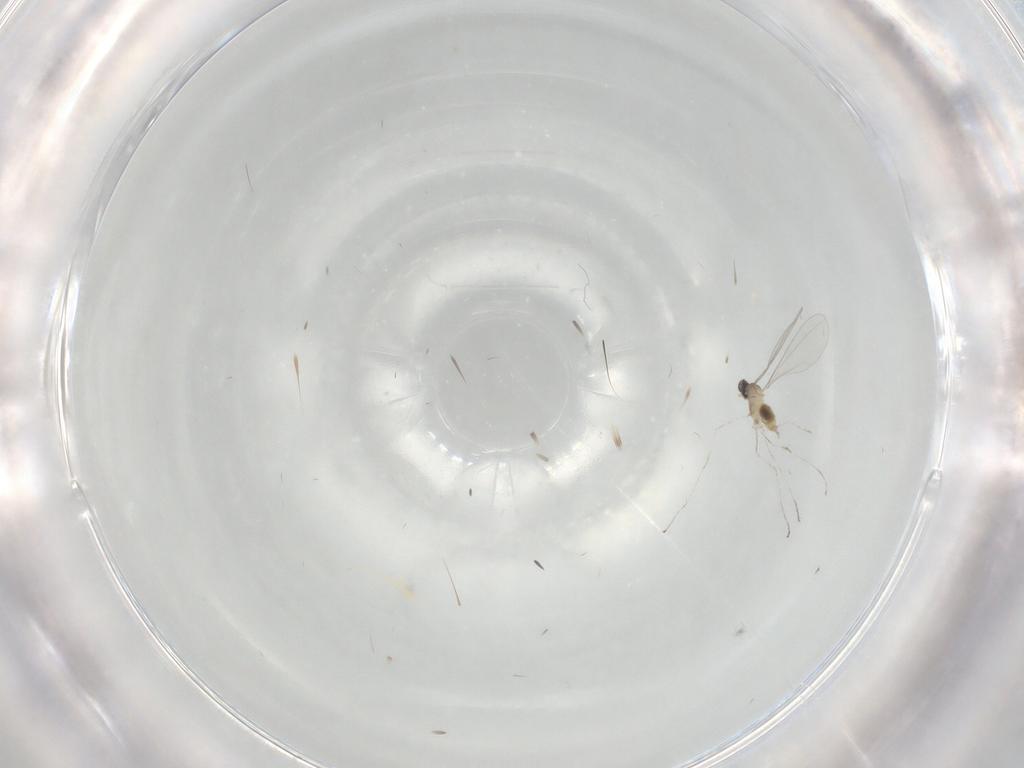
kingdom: Animalia
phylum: Arthropoda
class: Insecta
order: Diptera
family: Cecidomyiidae
